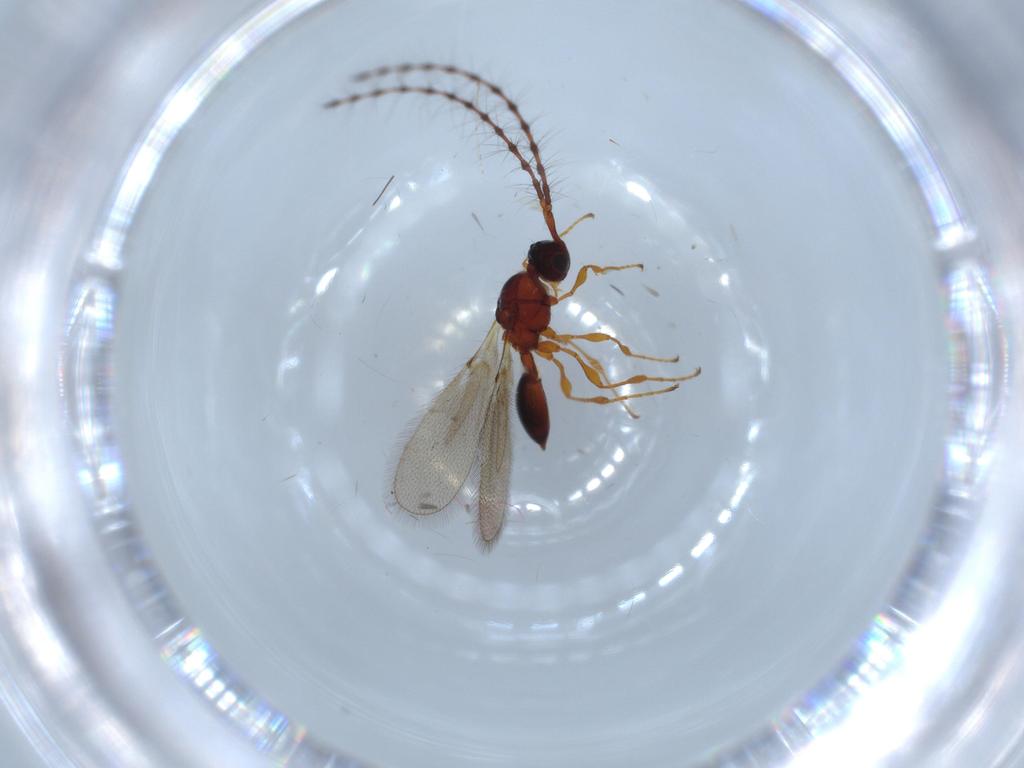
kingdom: Animalia
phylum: Arthropoda
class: Insecta
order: Hymenoptera
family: Diapriidae
